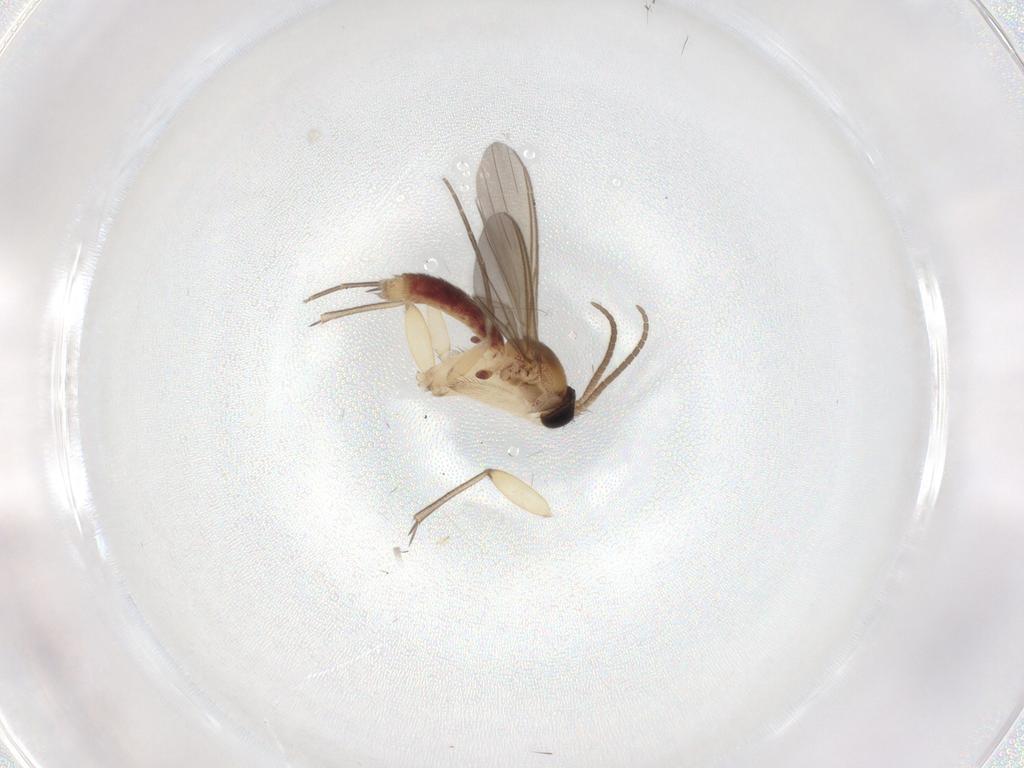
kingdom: Animalia
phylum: Arthropoda
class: Insecta
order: Diptera
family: Mycetophilidae
